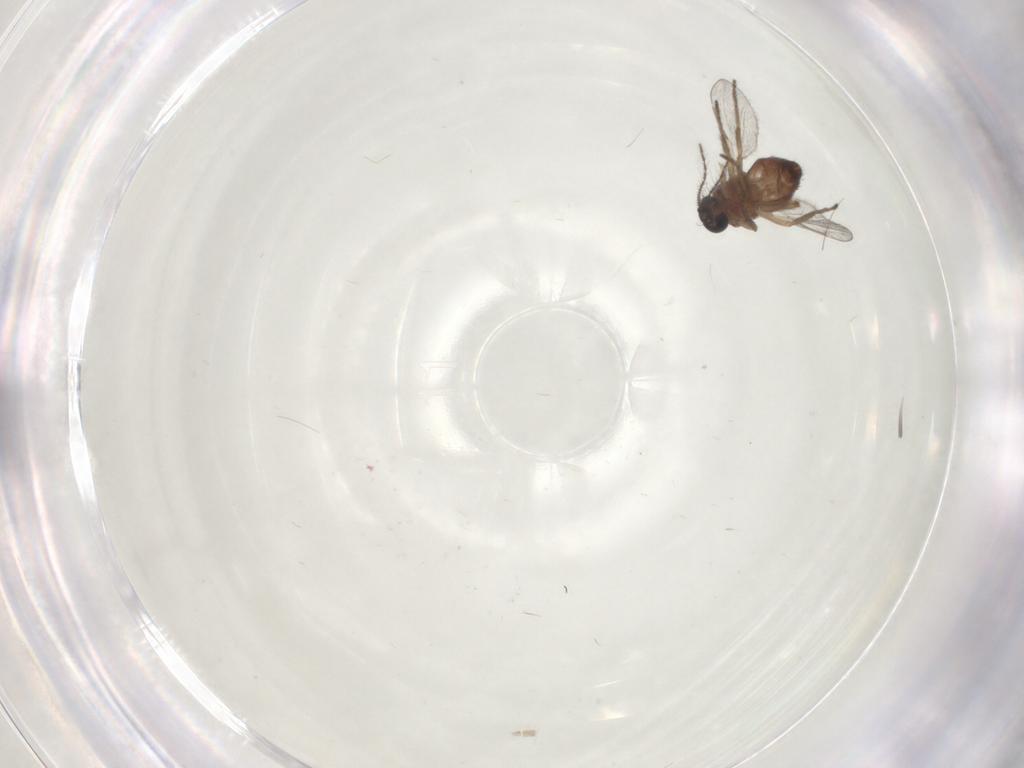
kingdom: Animalia
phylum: Arthropoda
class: Insecta
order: Diptera
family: Ceratopogonidae
